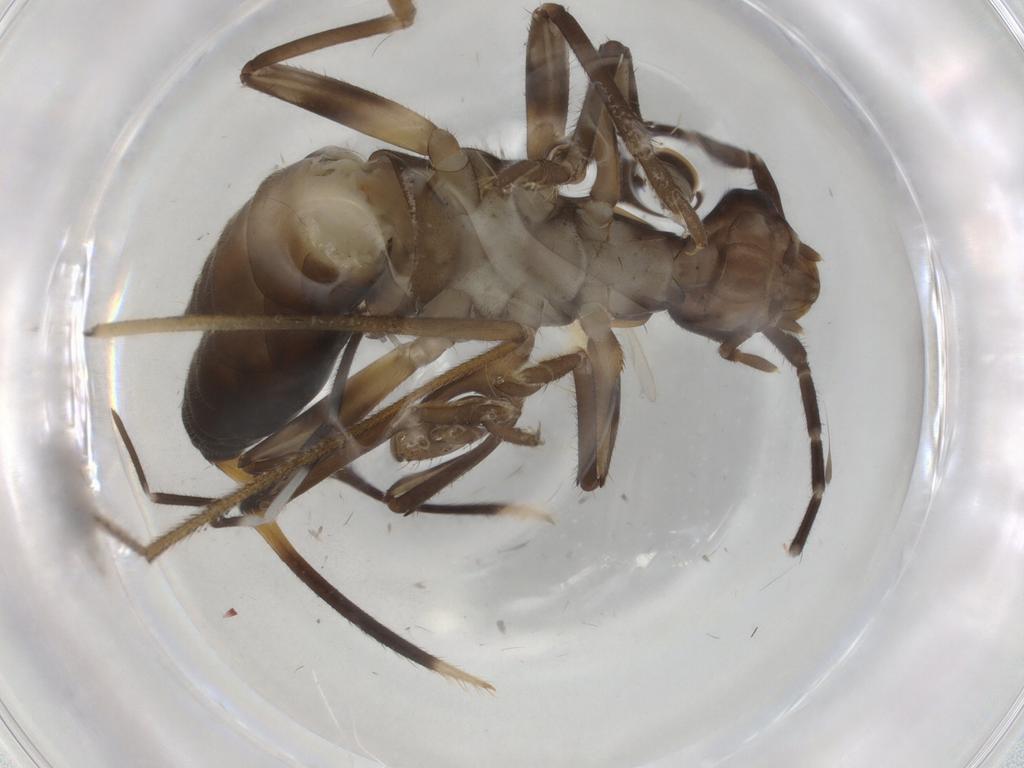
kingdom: Animalia
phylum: Arthropoda
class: Insecta
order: Dermaptera
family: Spongiphoridae
